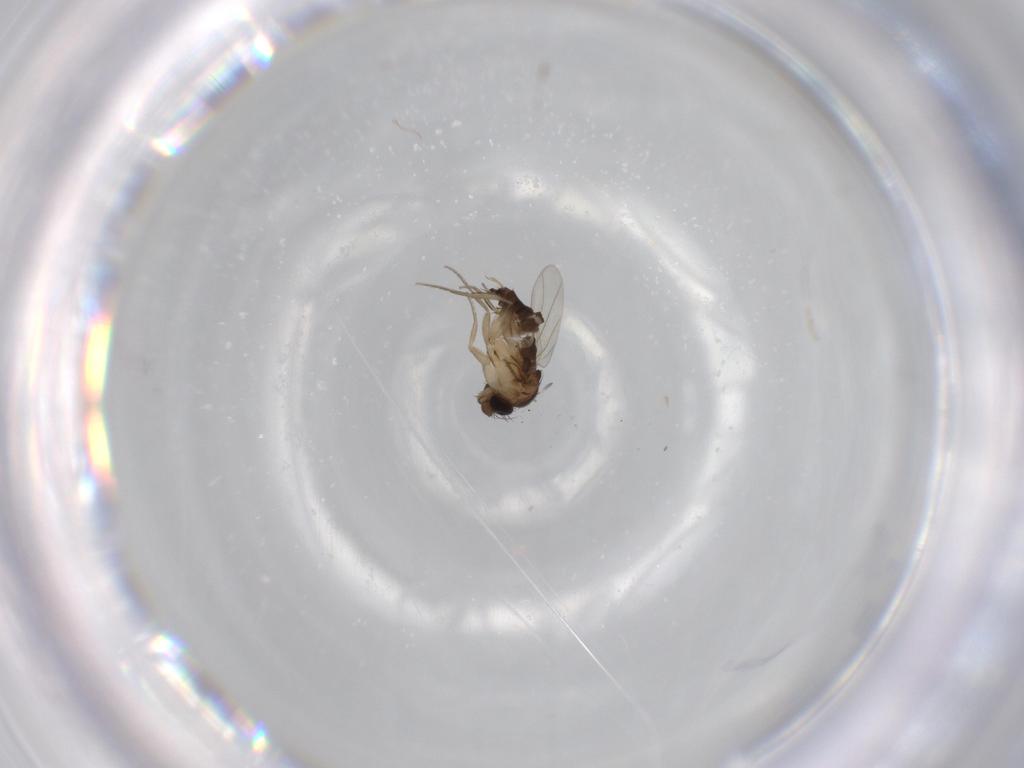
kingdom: Animalia
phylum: Arthropoda
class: Insecta
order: Diptera
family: Phoridae
